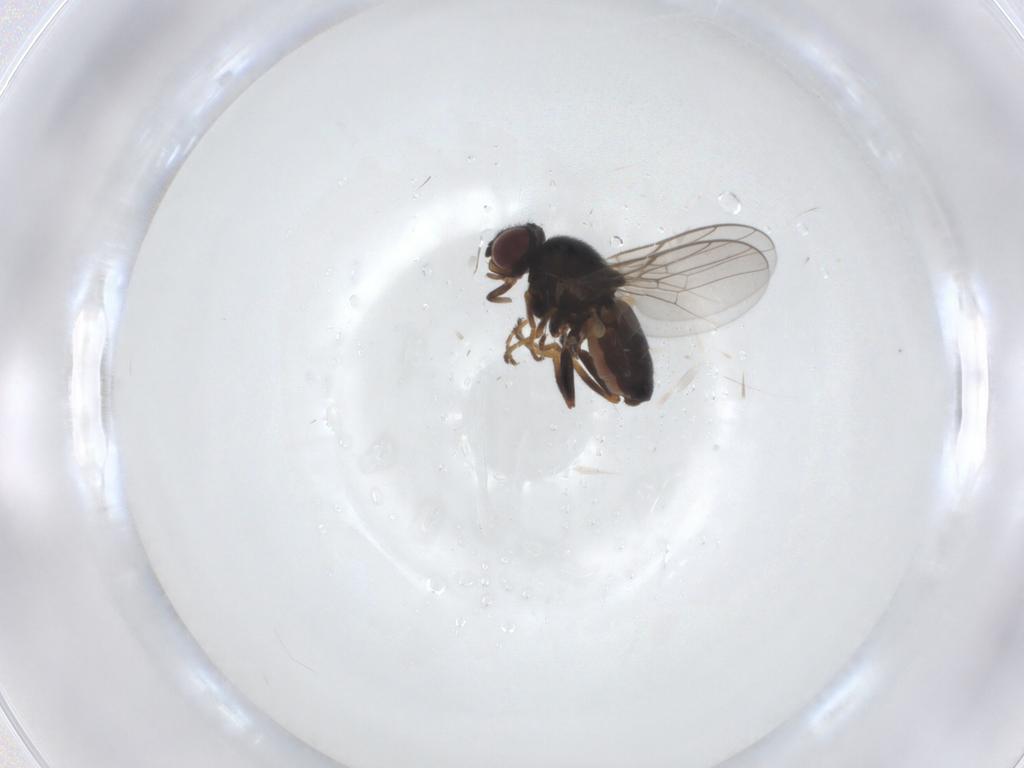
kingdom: Animalia
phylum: Arthropoda
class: Insecta
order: Diptera
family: Chloropidae
